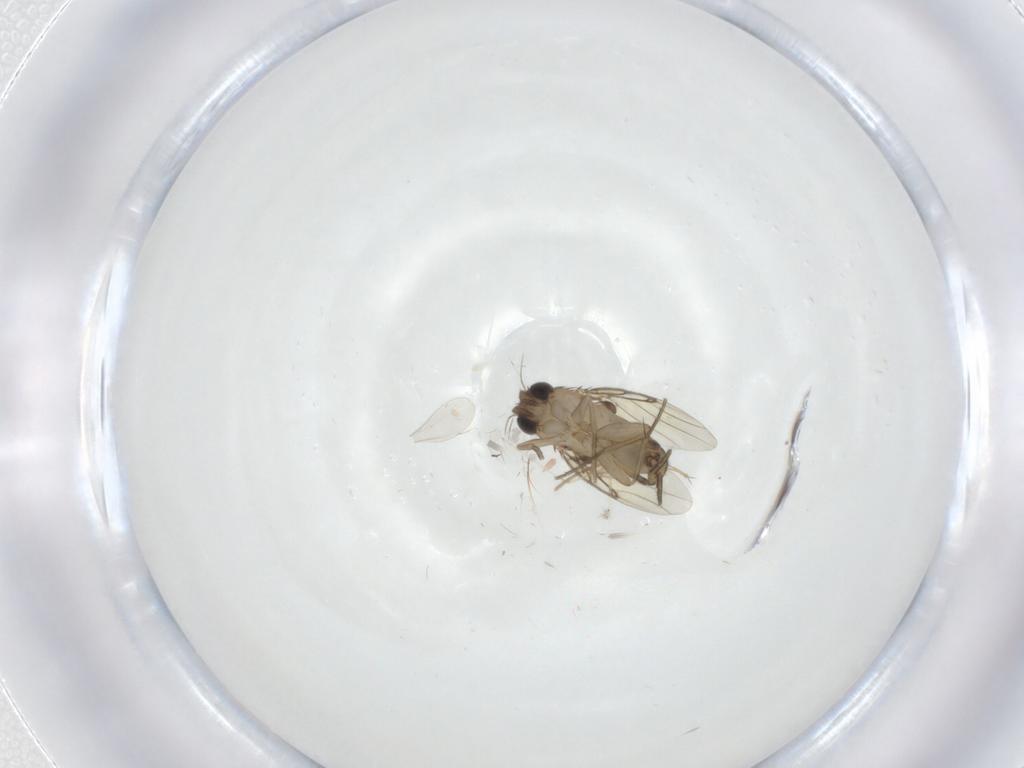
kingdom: Animalia
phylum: Arthropoda
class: Insecta
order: Diptera
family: Phoridae
